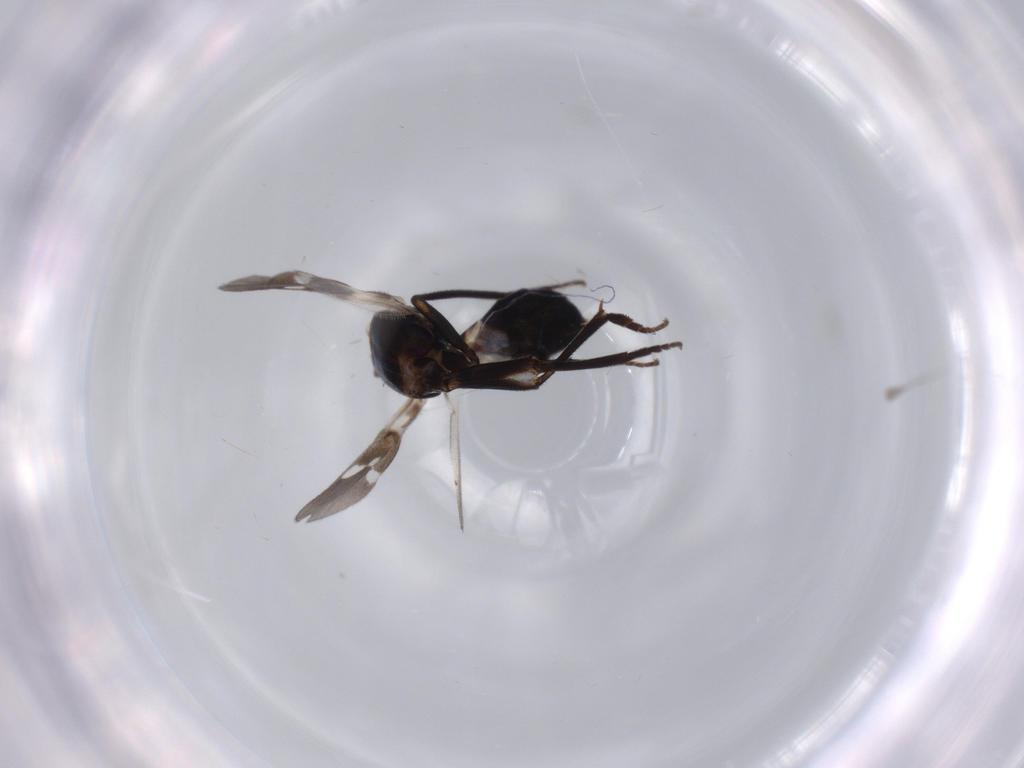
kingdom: Animalia
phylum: Arthropoda
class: Insecta
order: Hymenoptera
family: Eupelmidae
